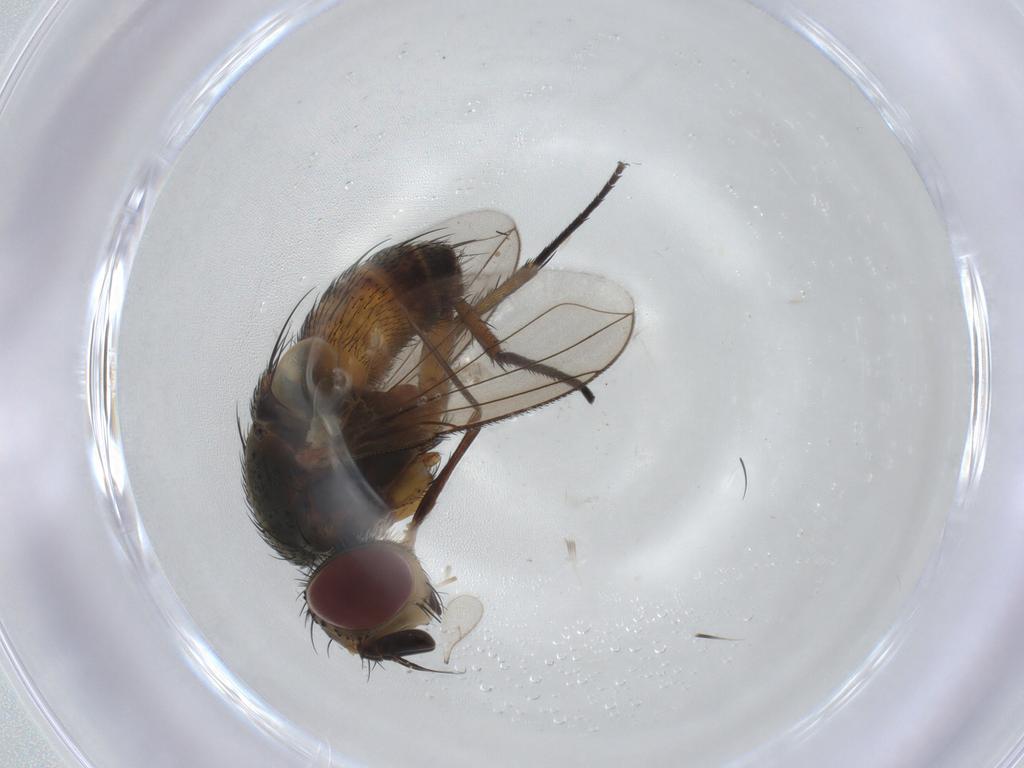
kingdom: Animalia
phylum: Arthropoda
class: Insecta
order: Diptera
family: Tachinidae
